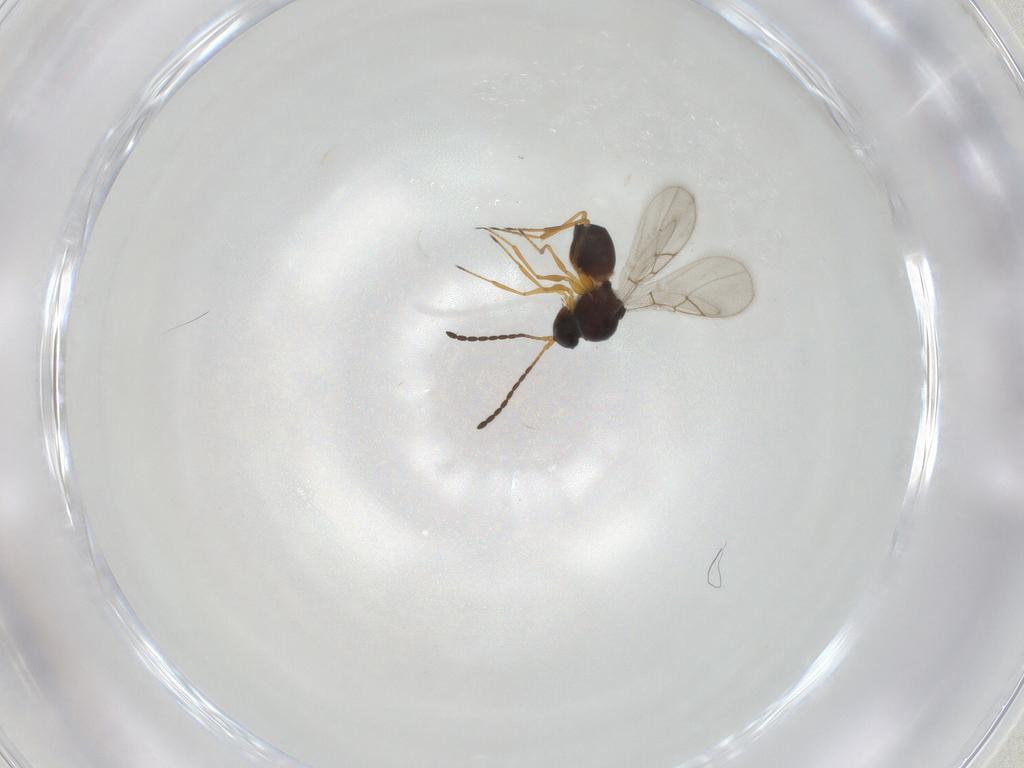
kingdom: Animalia
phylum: Arthropoda
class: Insecta
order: Hymenoptera
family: Figitidae
